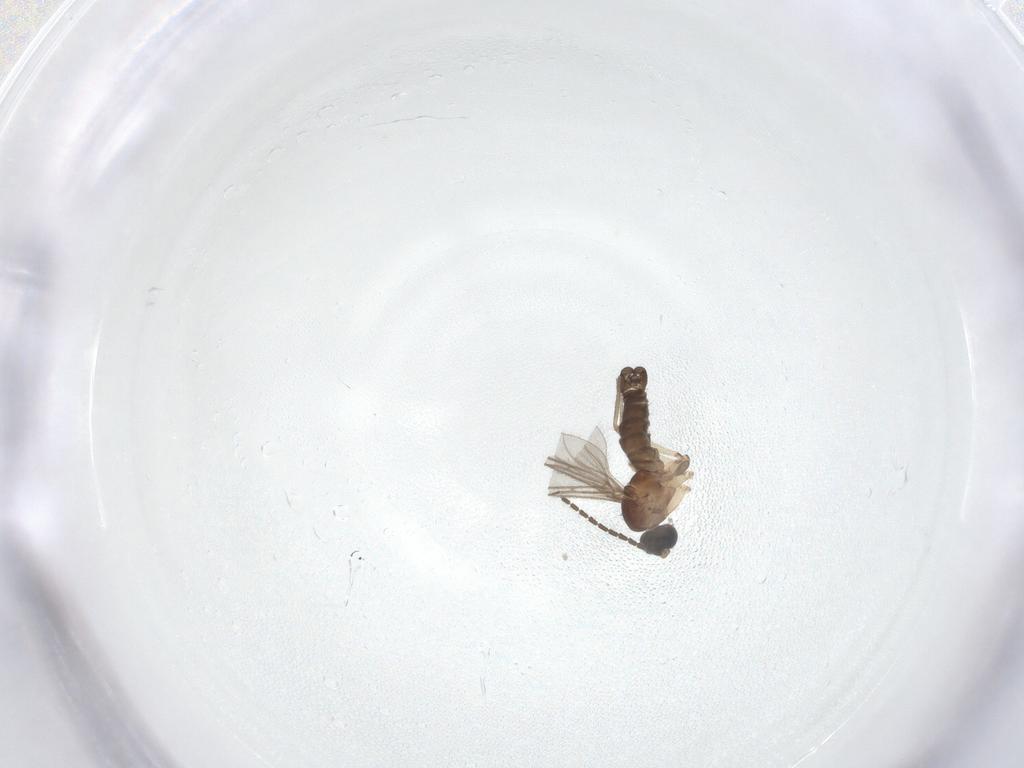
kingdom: Animalia
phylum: Arthropoda
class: Insecta
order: Diptera
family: Sciaridae
